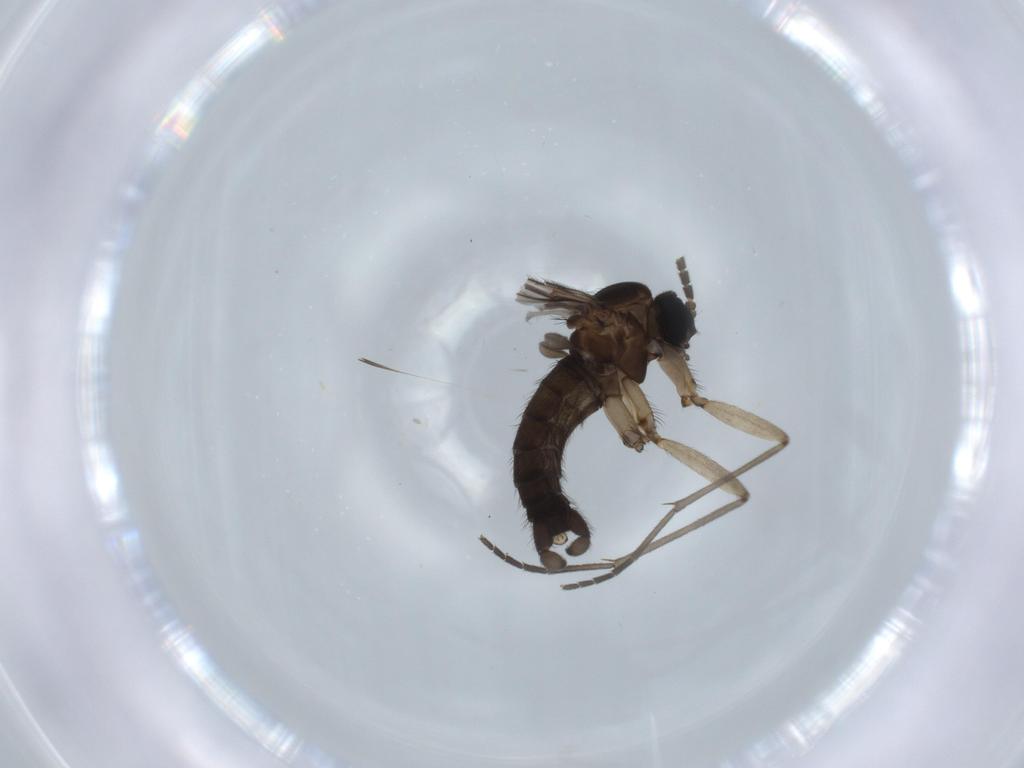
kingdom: Animalia
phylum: Arthropoda
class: Insecta
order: Diptera
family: Sciaridae
